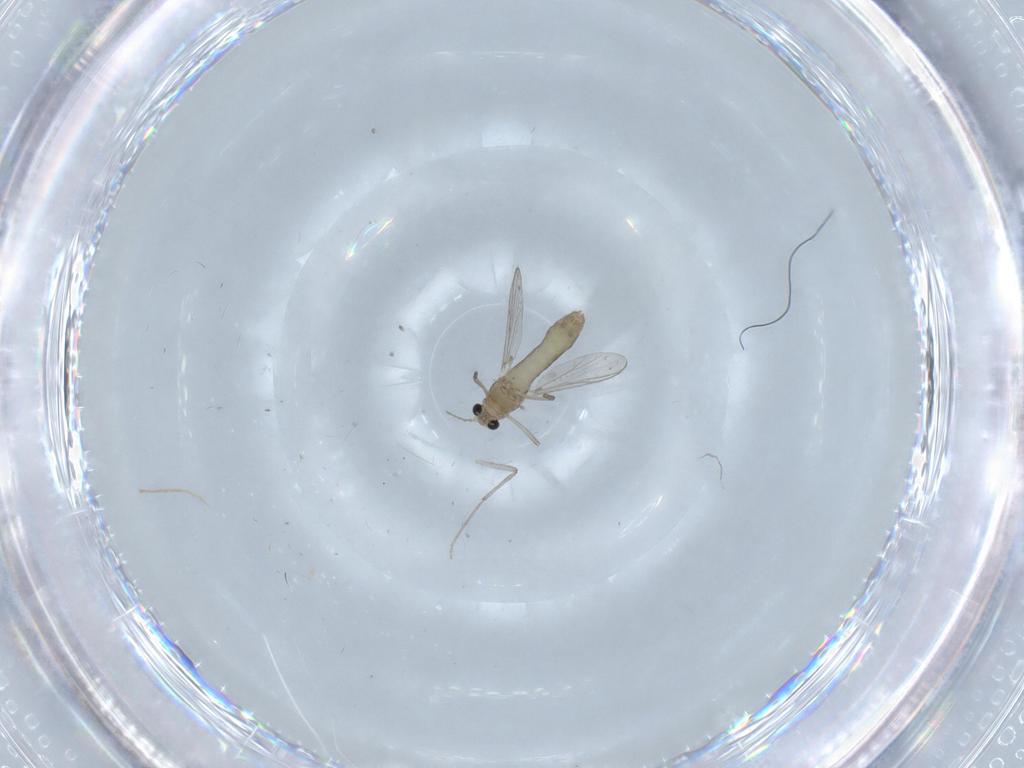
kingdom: Animalia
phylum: Arthropoda
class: Insecta
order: Diptera
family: Chironomidae
